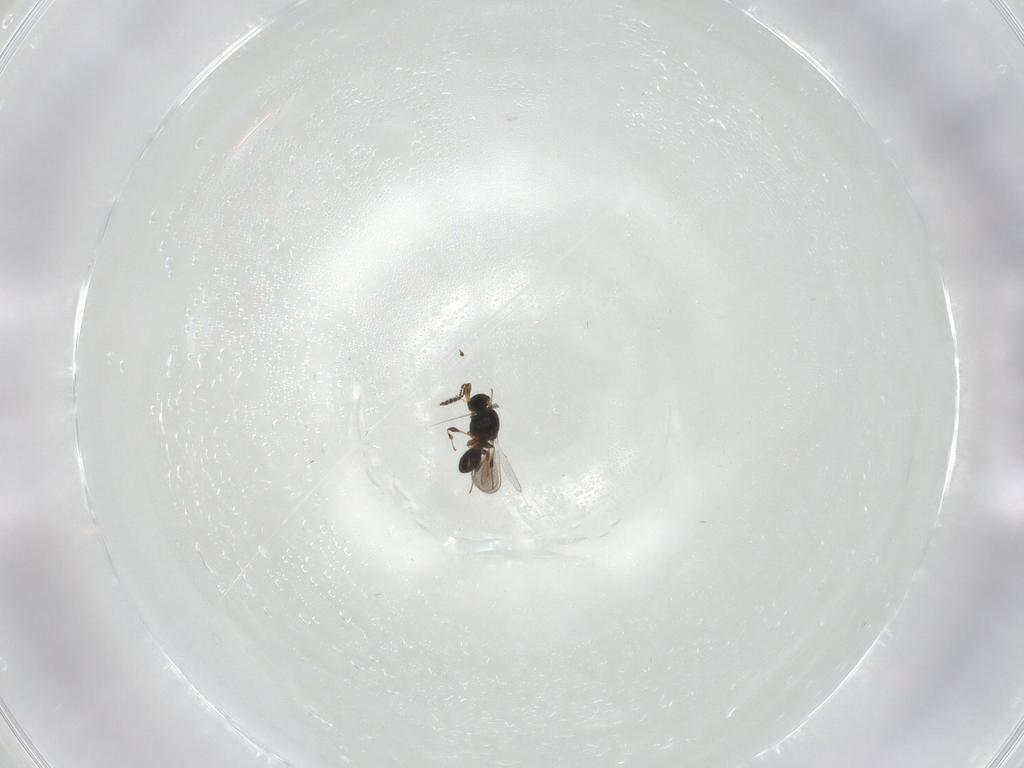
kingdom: Animalia
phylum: Arthropoda
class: Insecta
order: Hymenoptera
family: Platygastridae
